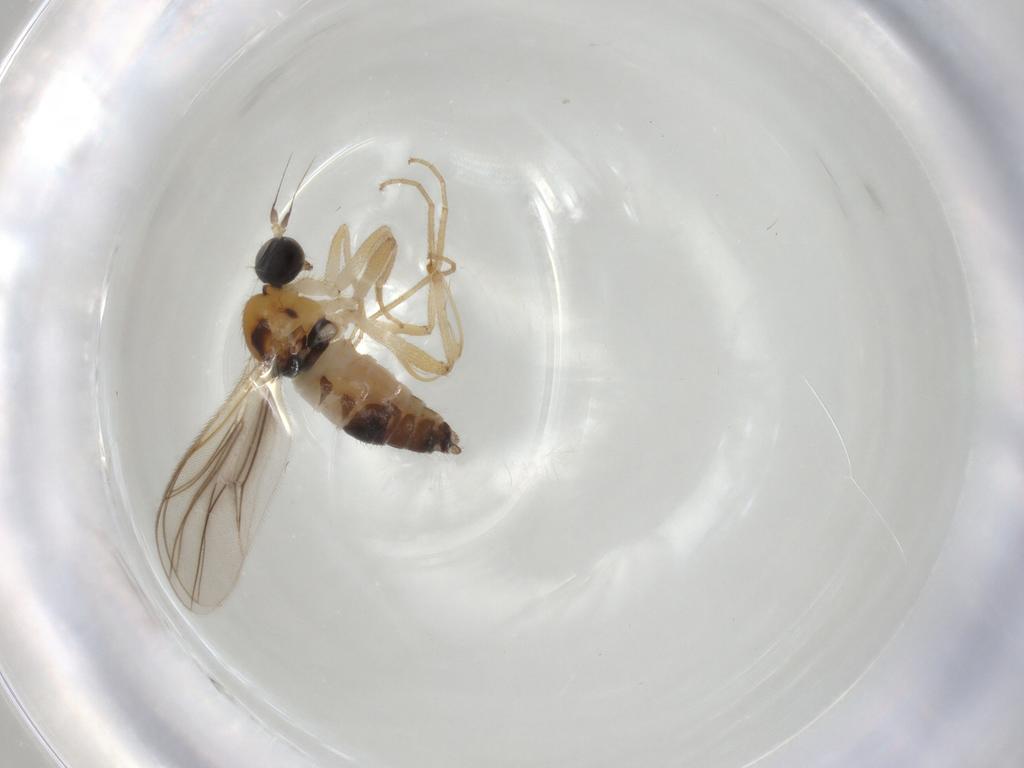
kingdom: Animalia
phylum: Arthropoda
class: Insecta
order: Diptera
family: Hybotidae
